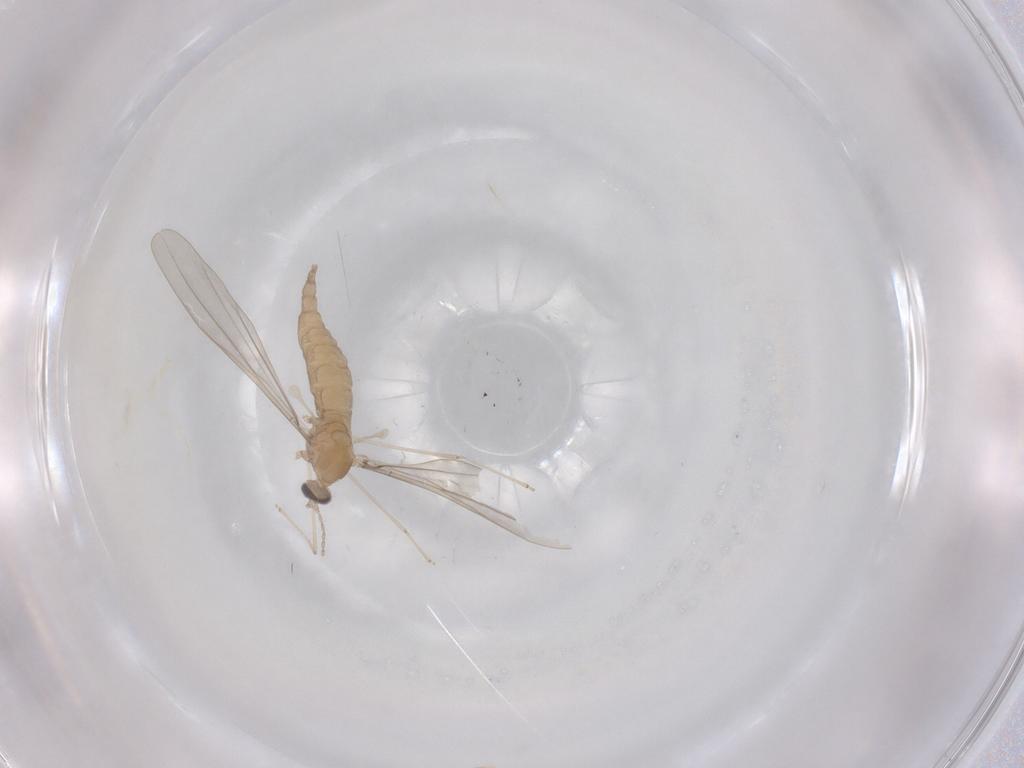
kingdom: Animalia
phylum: Arthropoda
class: Insecta
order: Diptera
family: Cecidomyiidae
